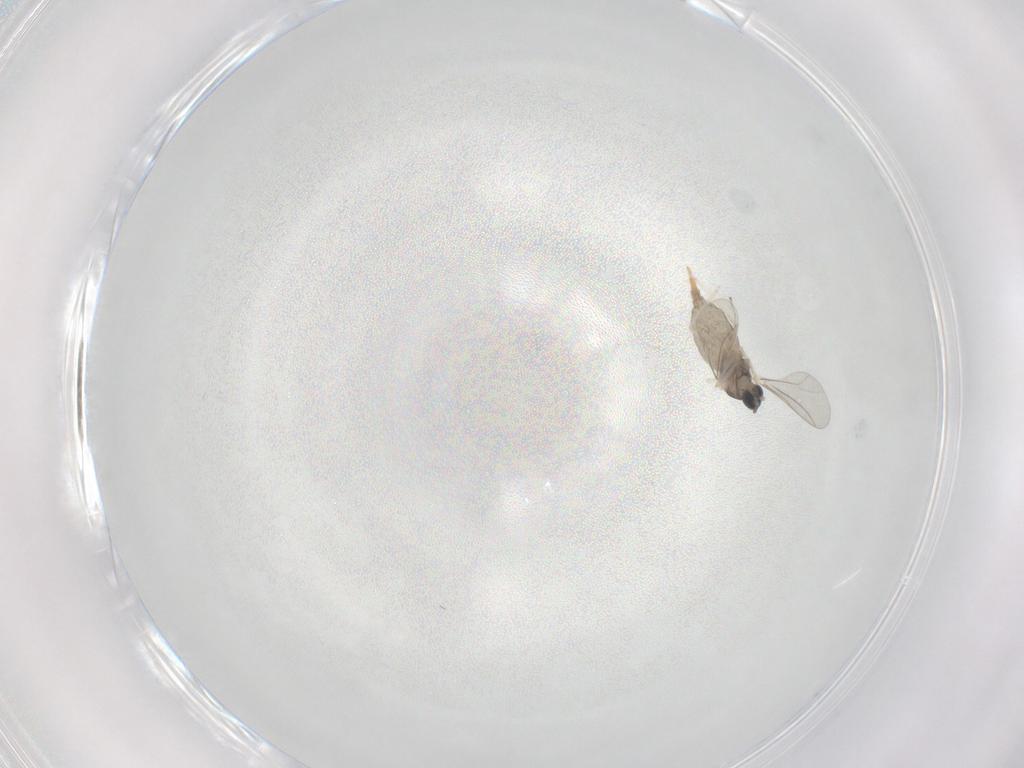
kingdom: Animalia
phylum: Arthropoda
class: Insecta
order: Diptera
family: Cecidomyiidae
